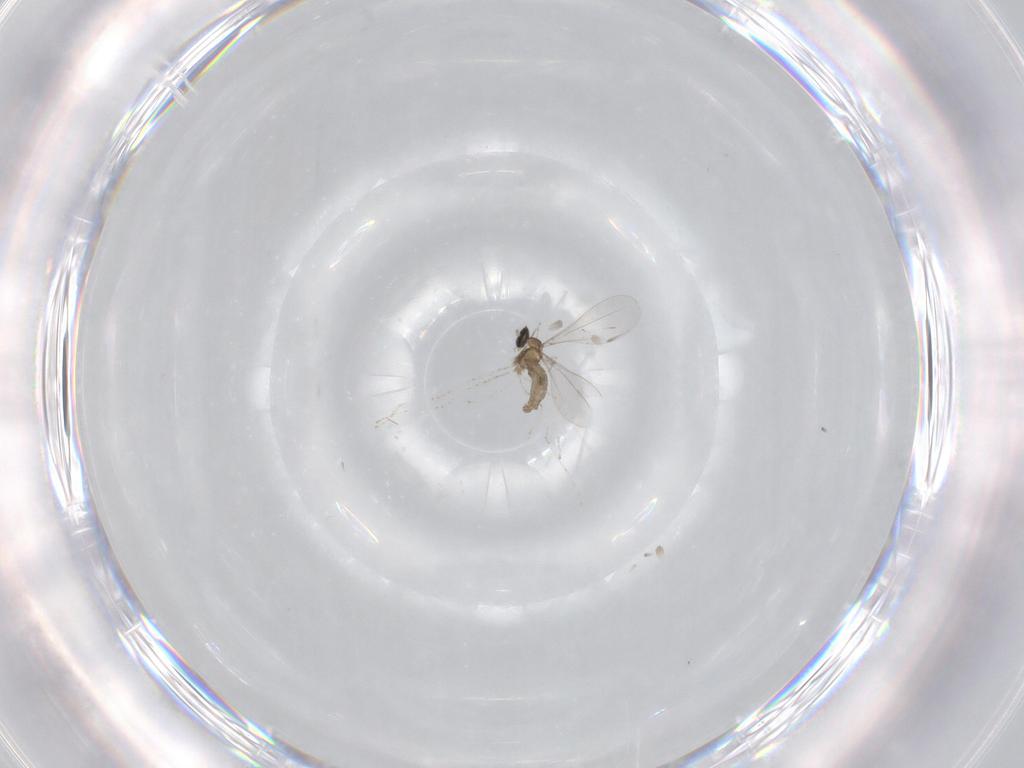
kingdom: Animalia
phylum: Arthropoda
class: Insecta
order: Diptera
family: Cecidomyiidae
